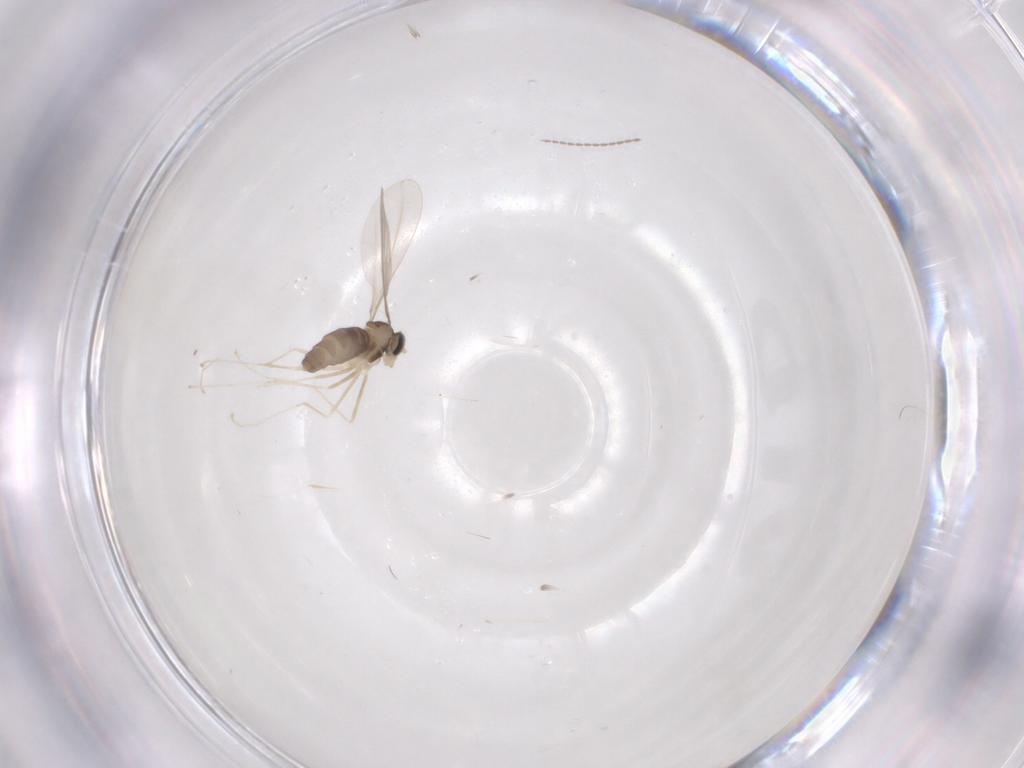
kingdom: Animalia
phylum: Arthropoda
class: Insecta
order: Diptera
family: Cecidomyiidae
